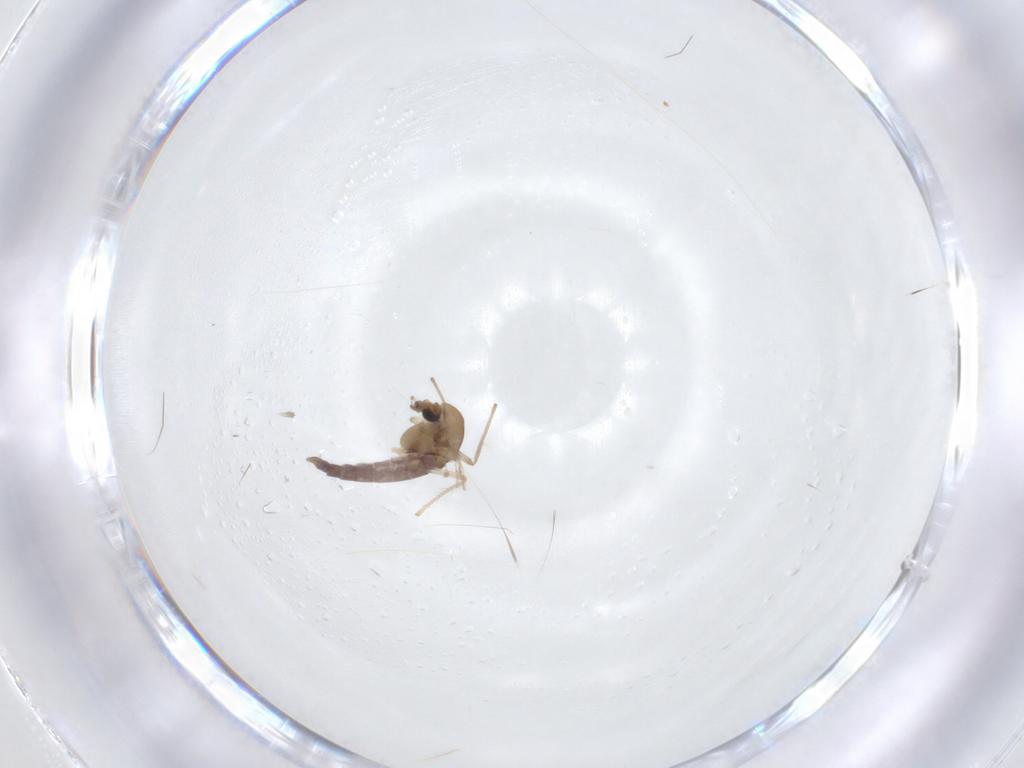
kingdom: Animalia
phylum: Arthropoda
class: Insecta
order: Diptera
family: Chironomidae
